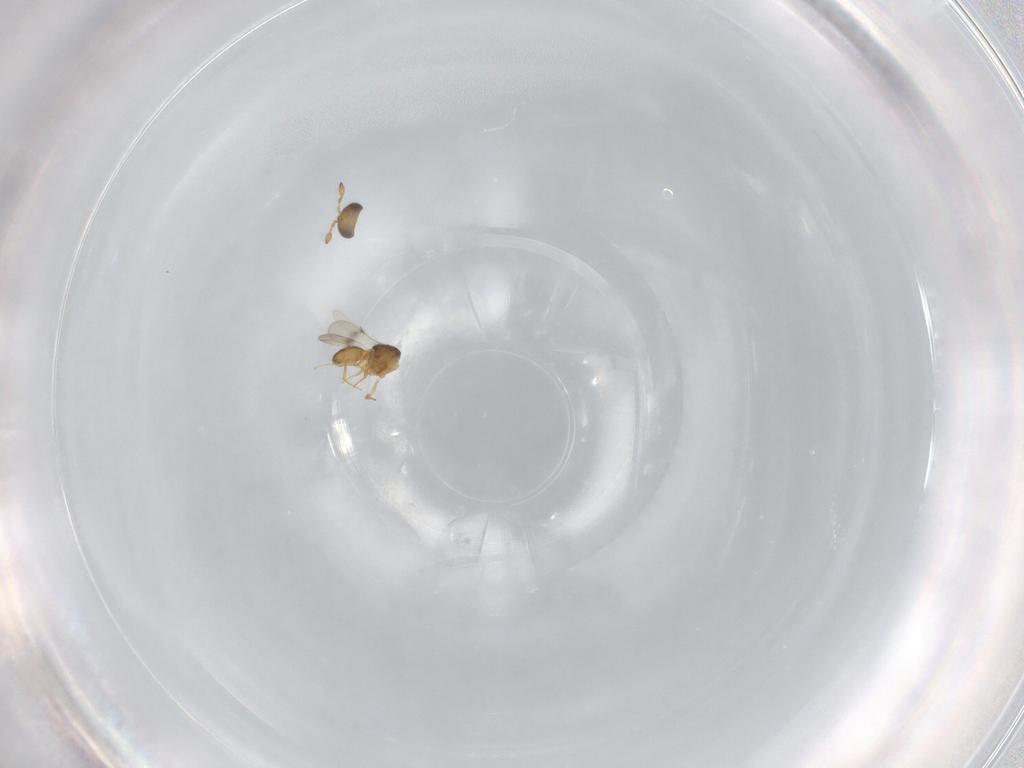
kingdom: Animalia
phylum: Arthropoda
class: Insecta
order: Hymenoptera
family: Scelionidae
